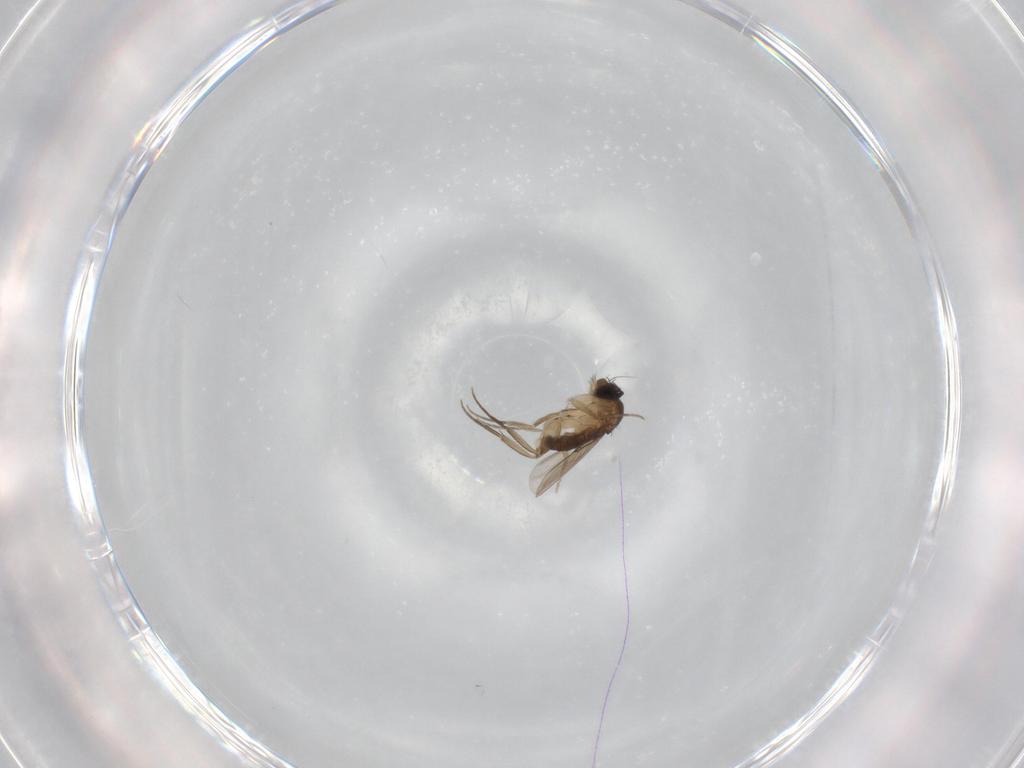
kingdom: Animalia
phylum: Arthropoda
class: Insecta
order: Diptera
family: Phoridae
